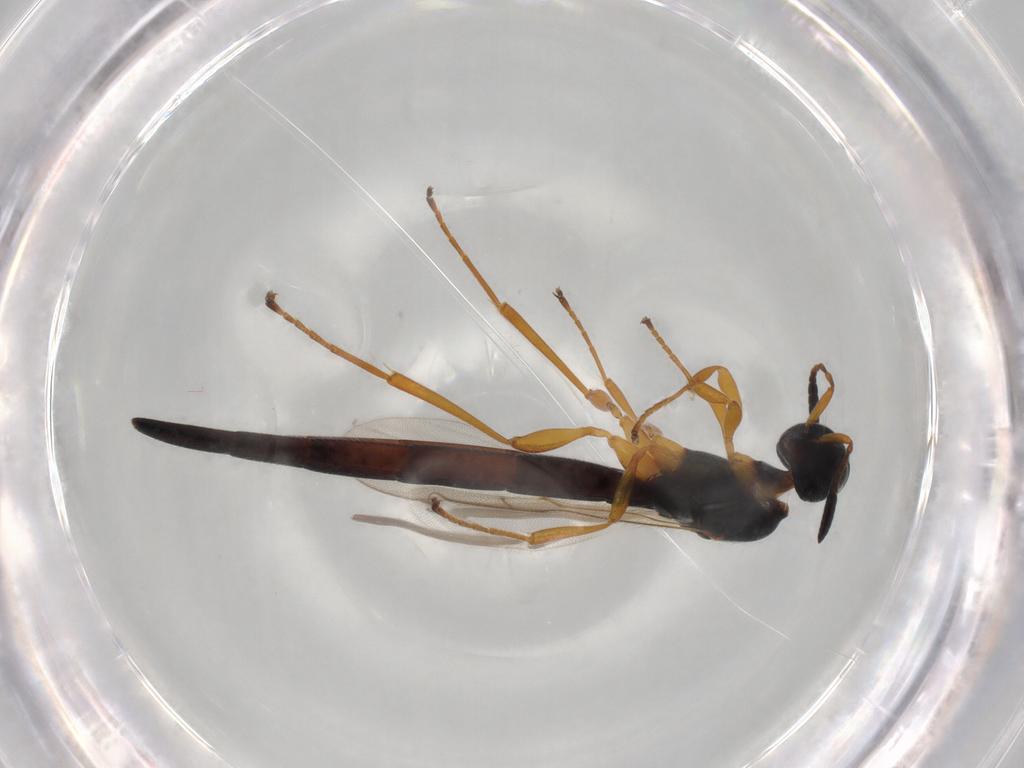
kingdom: Animalia
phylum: Arthropoda
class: Insecta
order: Hymenoptera
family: Scelionidae
